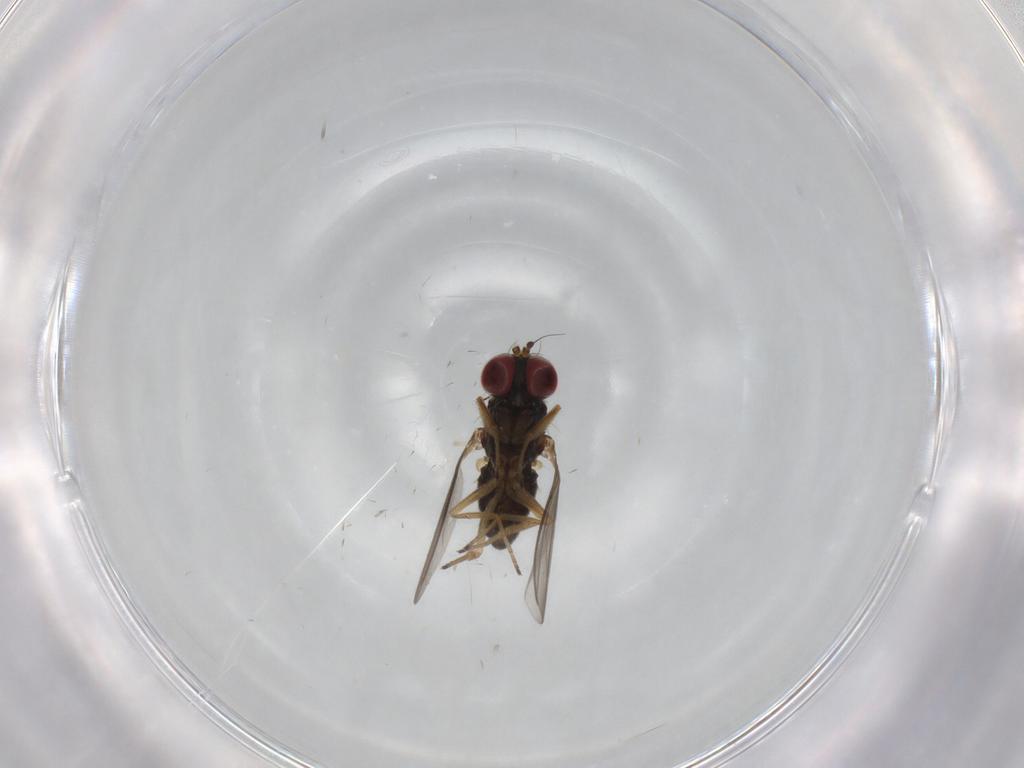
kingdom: Animalia
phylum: Arthropoda
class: Insecta
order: Diptera
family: Dolichopodidae
